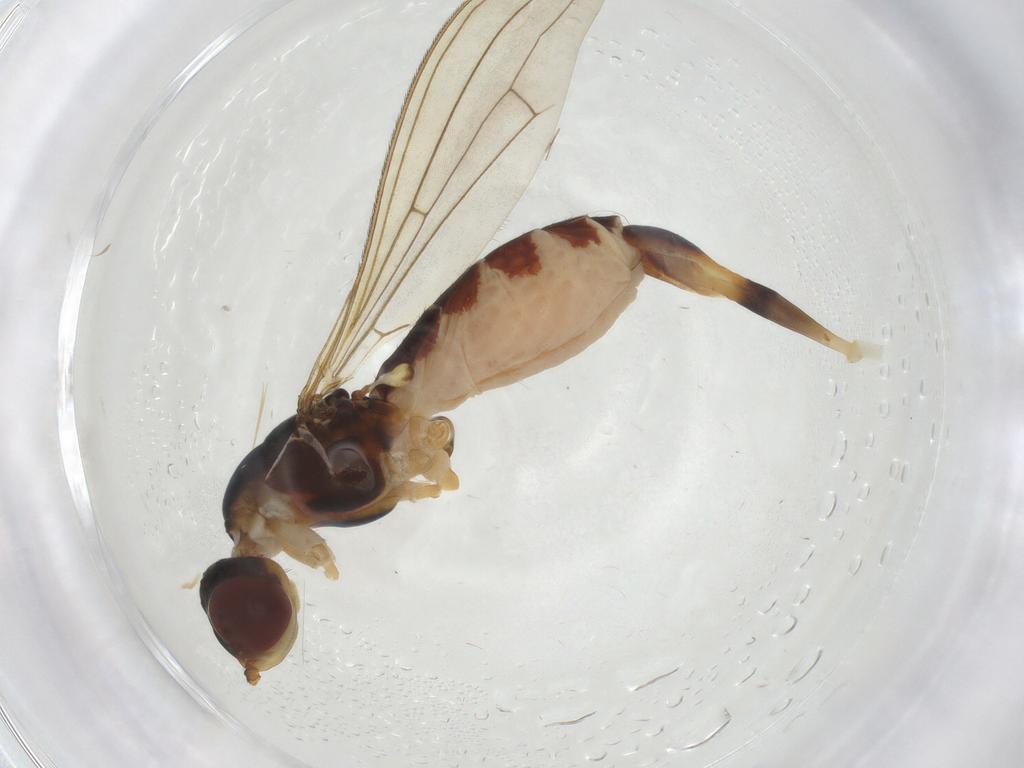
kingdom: Animalia
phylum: Arthropoda
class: Insecta
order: Diptera
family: Micropezidae
